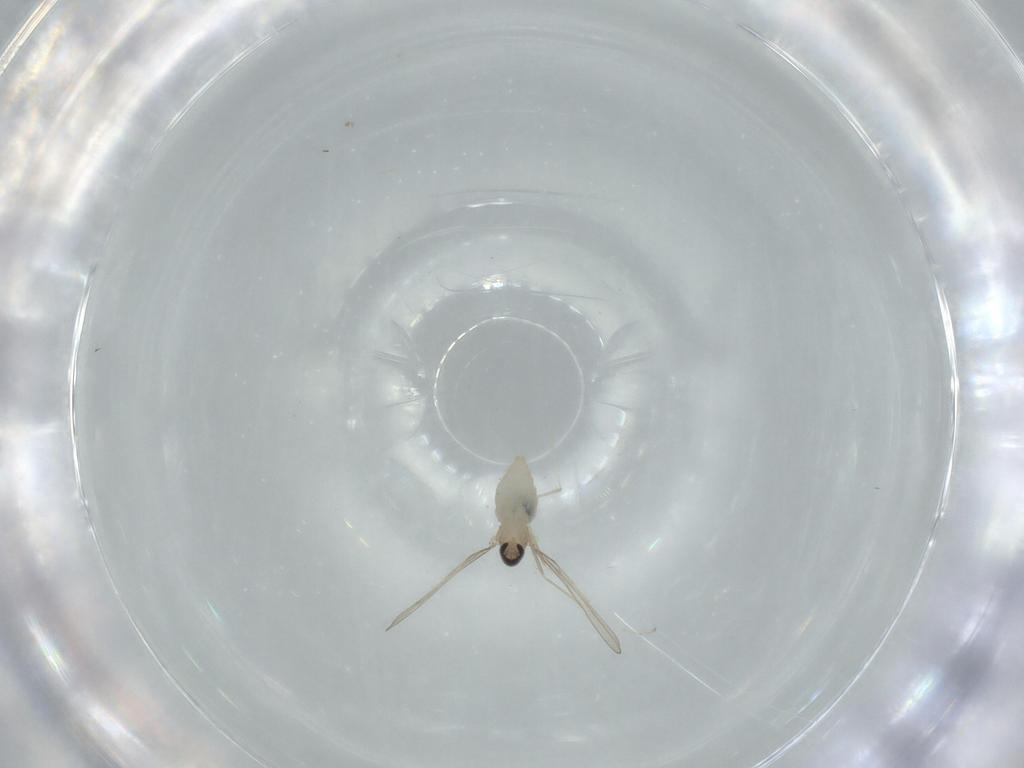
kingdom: Animalia
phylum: Arthropoda
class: Insecta
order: Diptera
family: Cecidomyiidae
